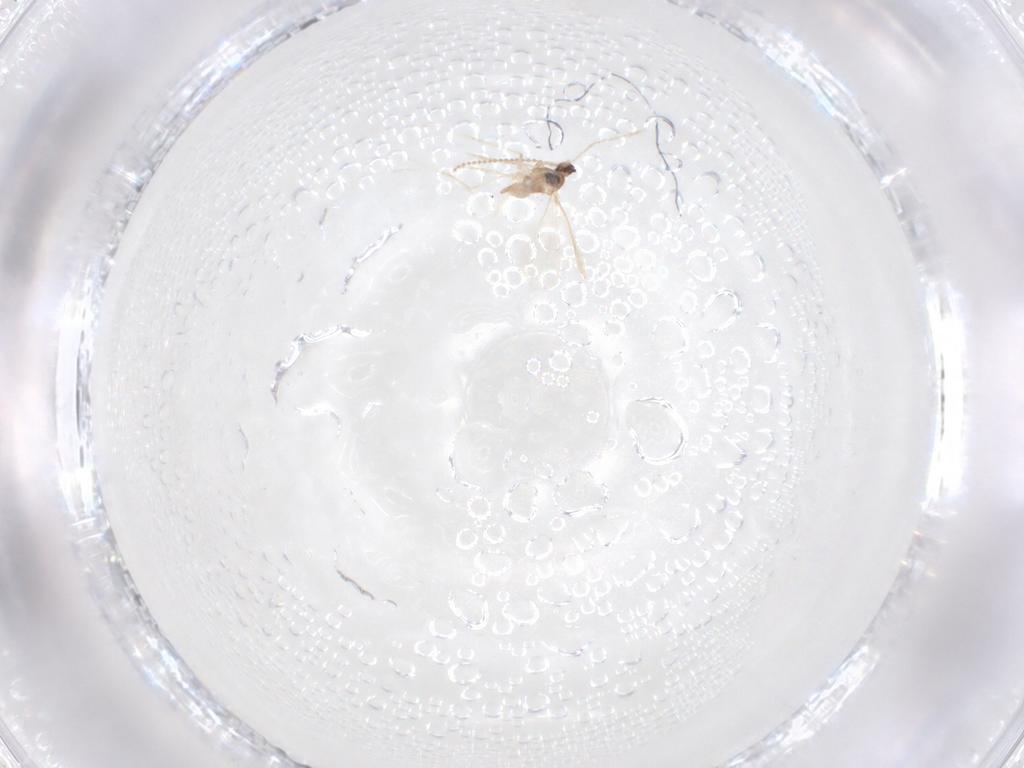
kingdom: Animalia
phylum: Arthropoda
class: Insecta
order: Diptera
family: Cecidomyiidae
